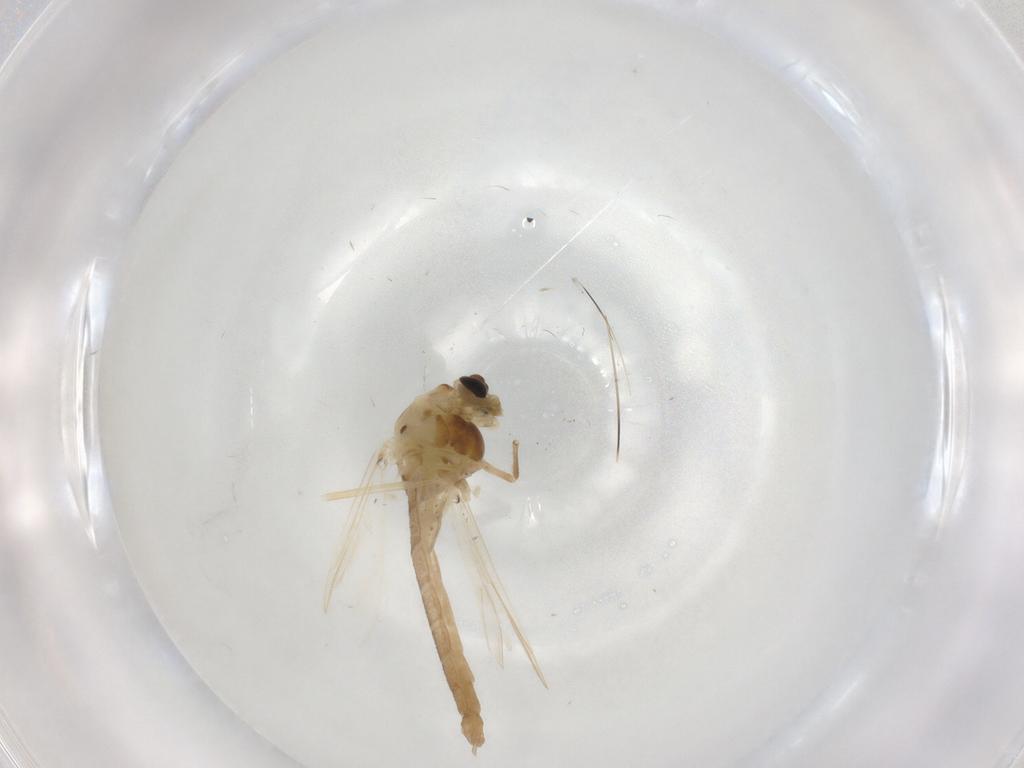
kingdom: Animalia
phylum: Arthropoda
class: Insecta
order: Diptera
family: Chironomidae
